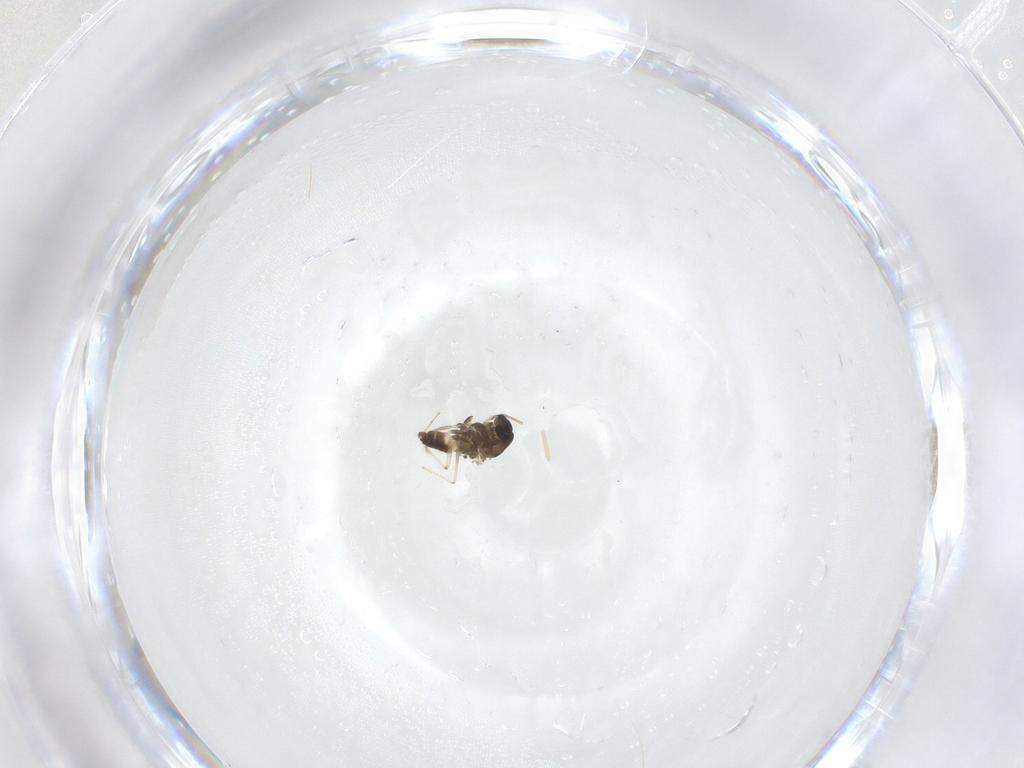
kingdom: Animalia
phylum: Arthropoda
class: Insecta
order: Diptera
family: Chironomidae
